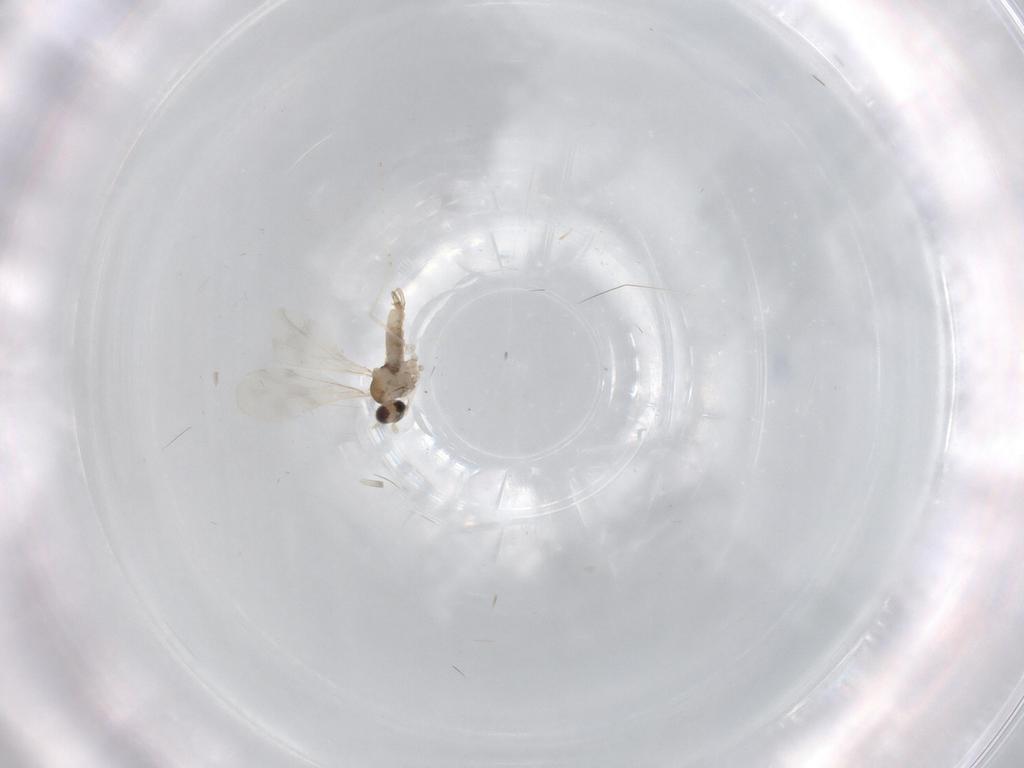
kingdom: Animalia
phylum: Arthropoda
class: Insecta
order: Diptera
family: Cecidomyiidae
